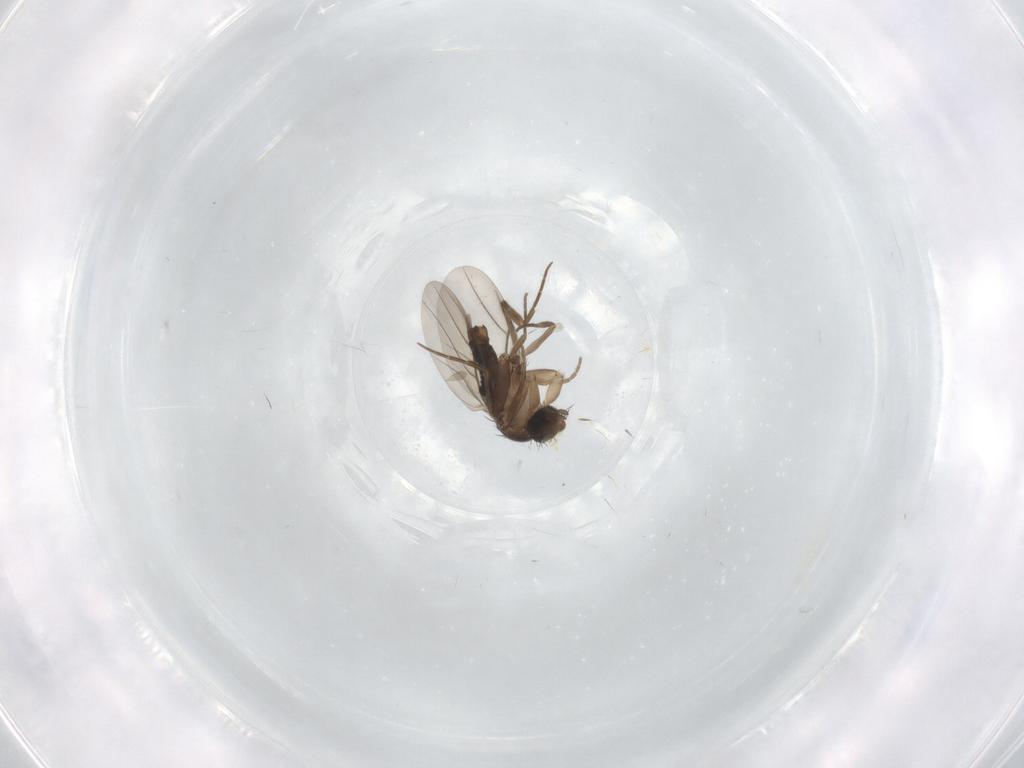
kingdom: Animalia
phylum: Arthropoda
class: Insecta
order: Diptera
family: Phoridae
